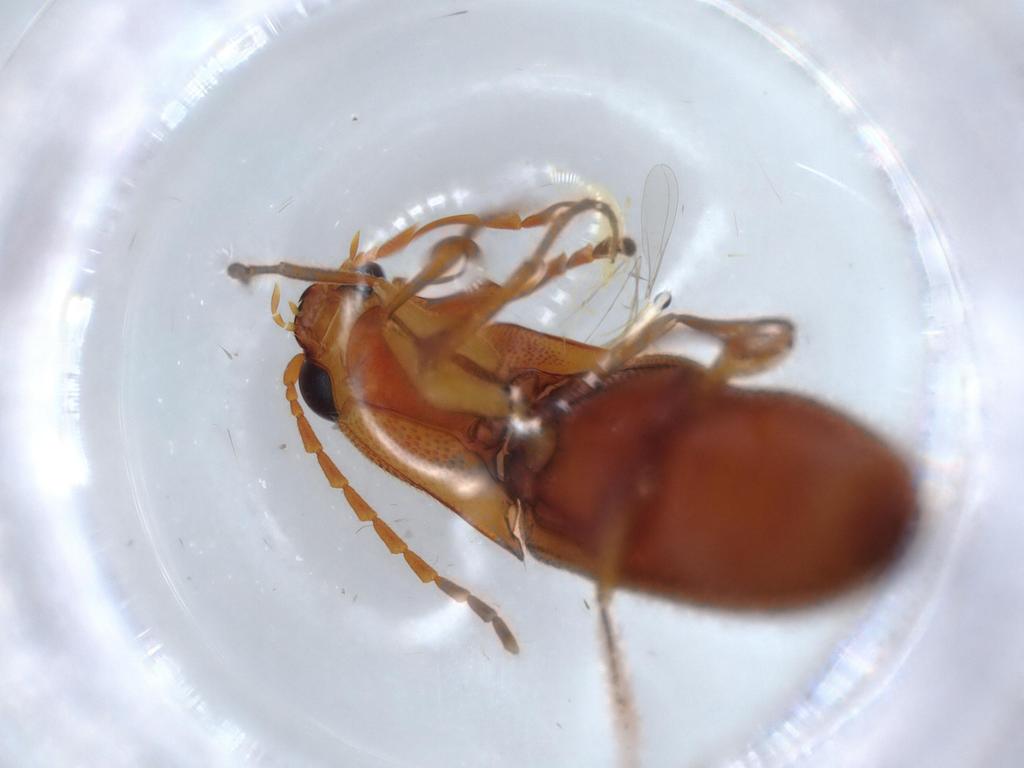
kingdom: Animalia
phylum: Arthropoda
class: Insecta
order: Coleoptera
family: Elateridae
